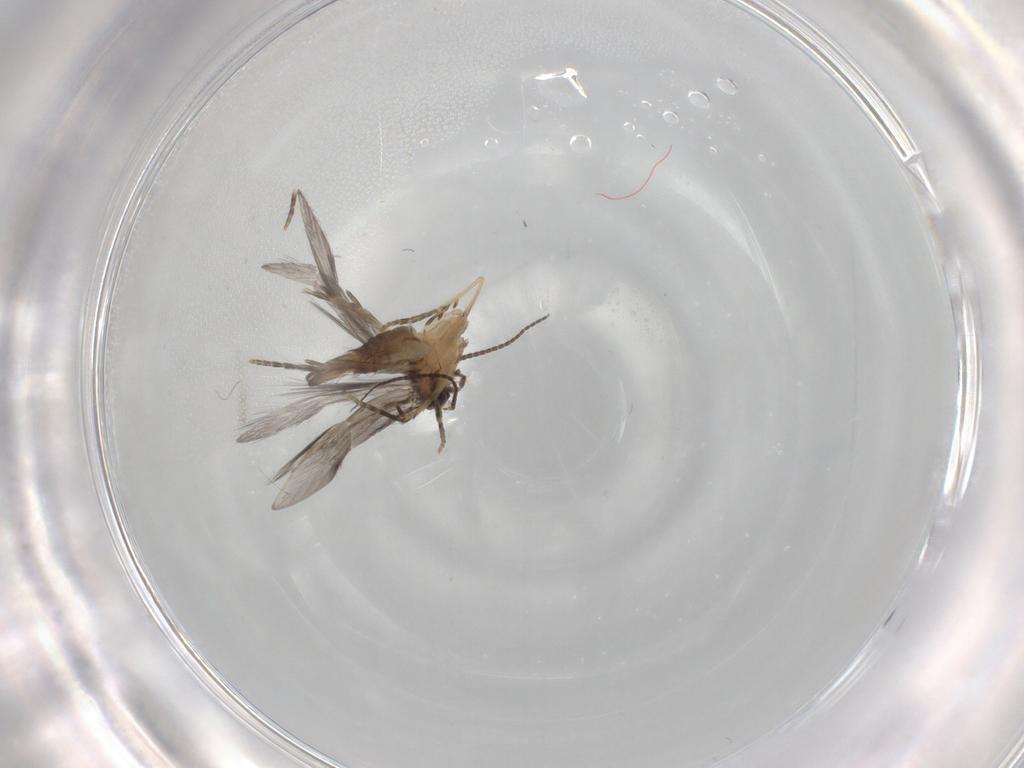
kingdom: Animalia
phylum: Arthropoda
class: Insecta
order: Trichoptera
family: Hydroptilidae
